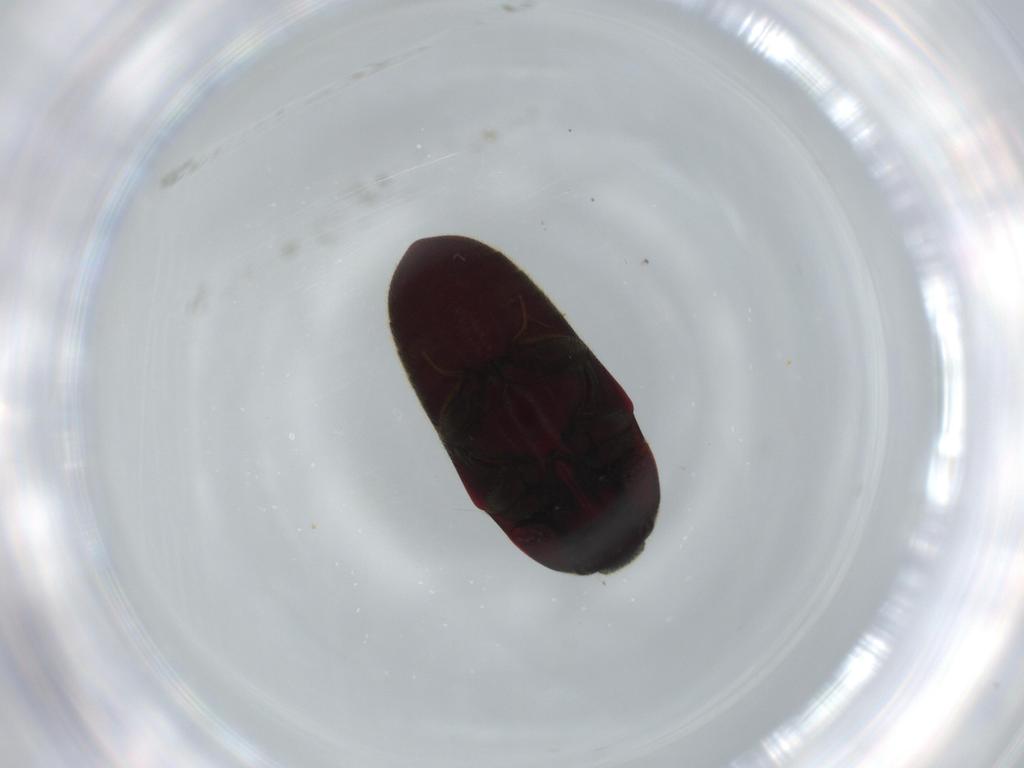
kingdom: Animalia
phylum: Arthropoda
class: Insecta
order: Coleoptera
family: Throscidae
